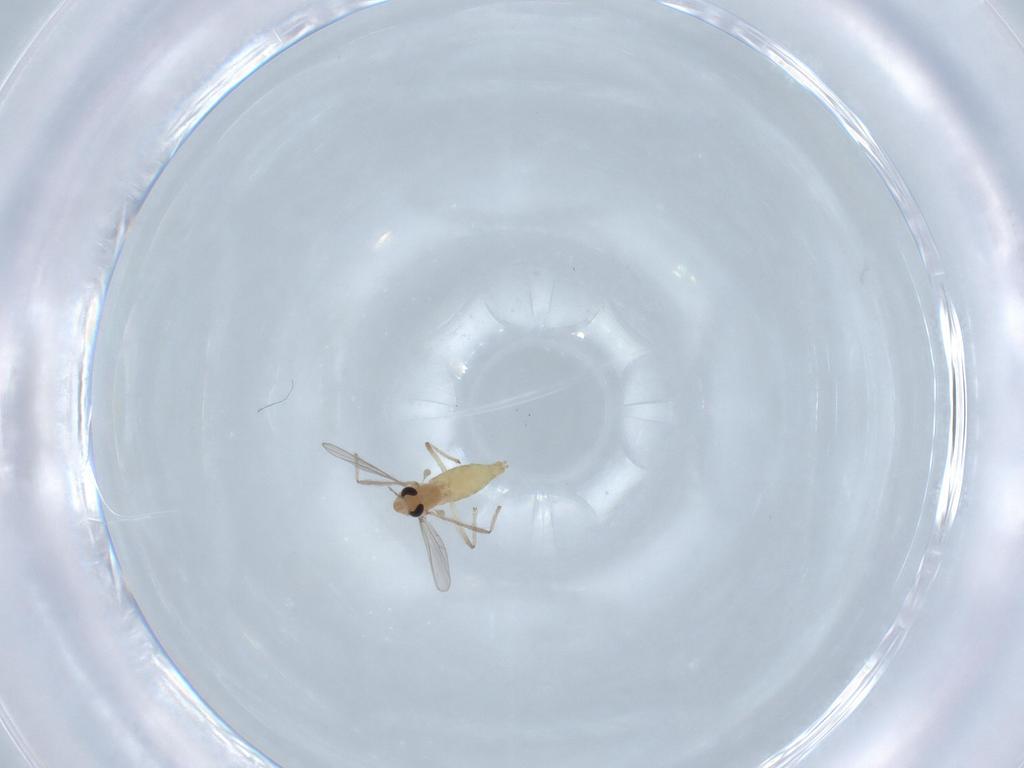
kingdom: Animalia
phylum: Arthropoda
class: Insecta
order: Diptera
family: Chironomidae
